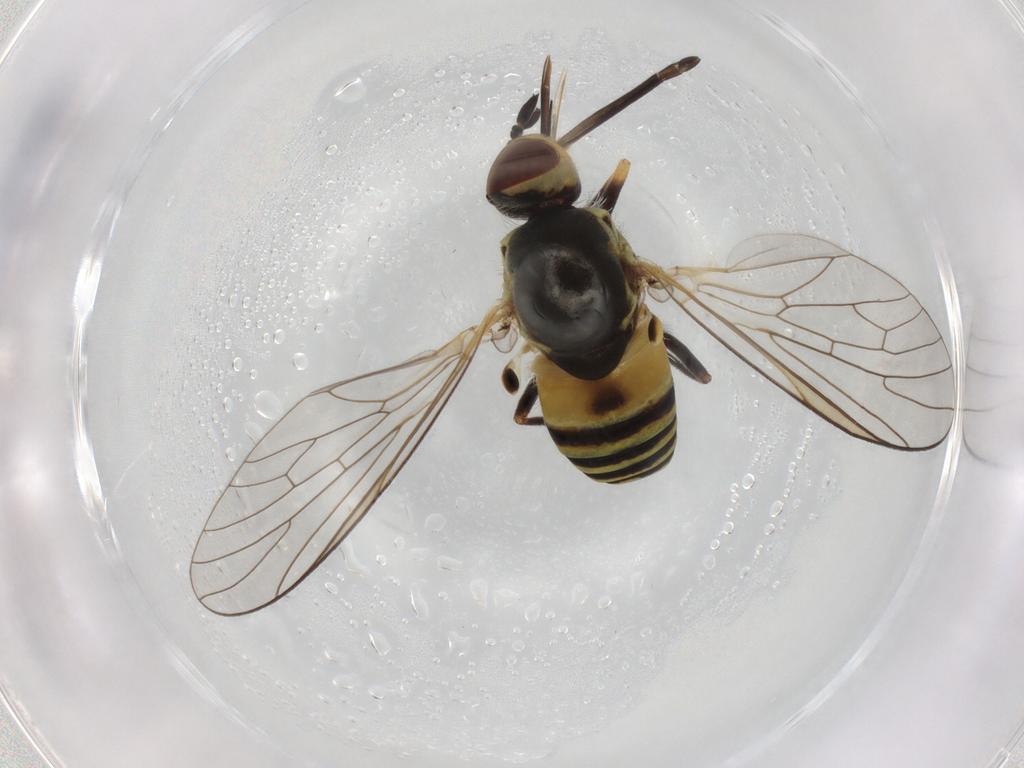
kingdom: Animalia
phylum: Arthropoda
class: Insecta
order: Diptera
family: Bombyliidae
